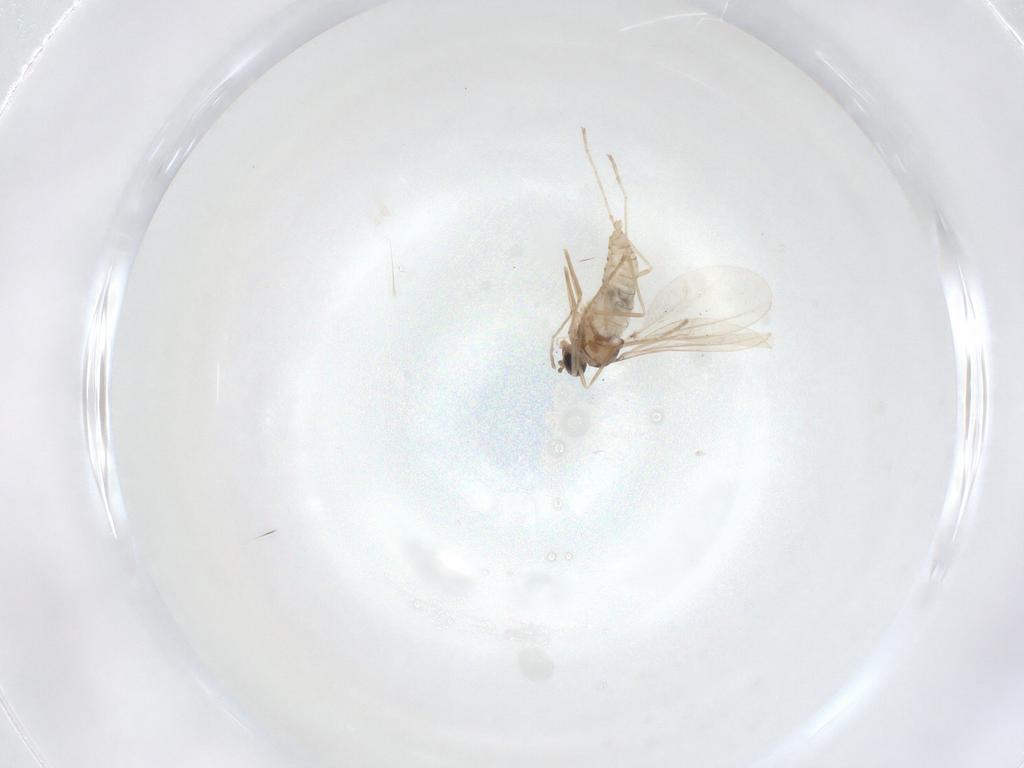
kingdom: Animalia
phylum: Arthropoda
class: Insecta
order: Diptera
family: Cecidomyiidae
